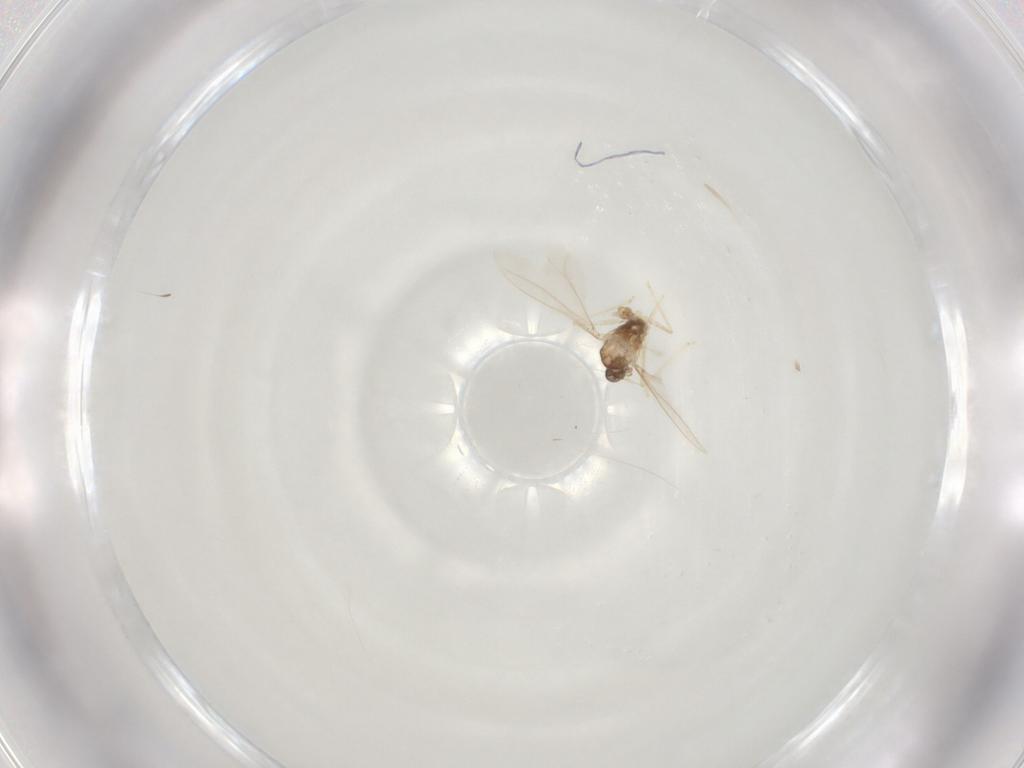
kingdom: Animalia
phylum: Arthropoda
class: Insecta
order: Diptera
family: Cecidomyiidae
